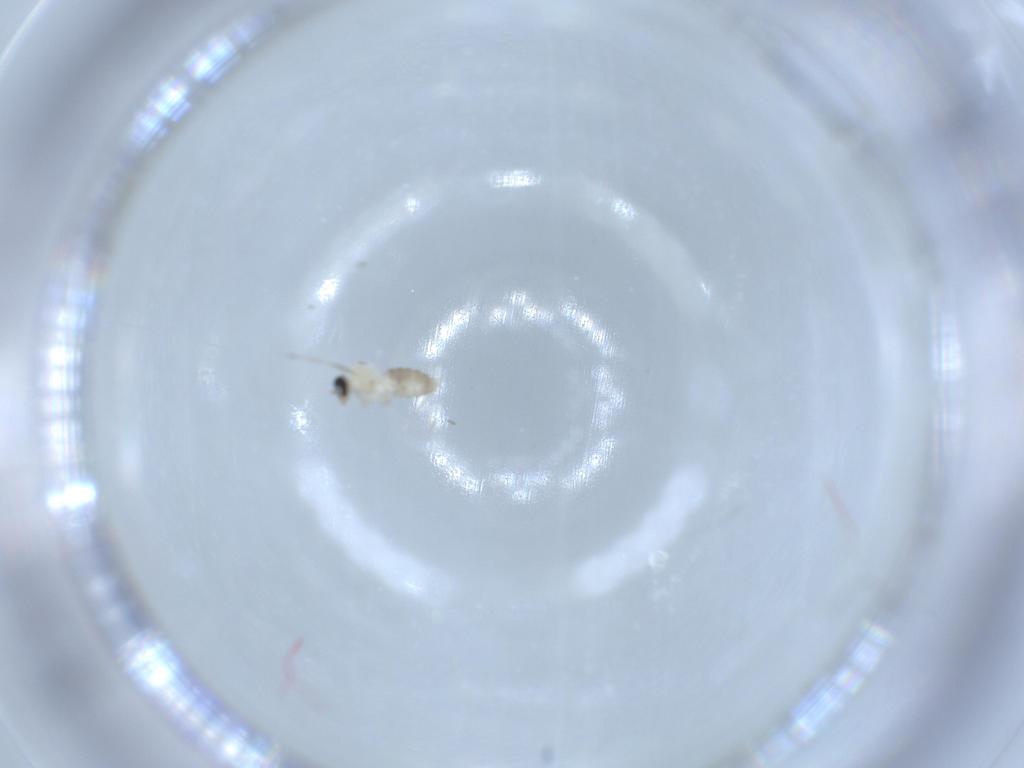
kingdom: Animalia
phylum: Arthropoda
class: Insecta
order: Diptera
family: Cecidomyiidae
